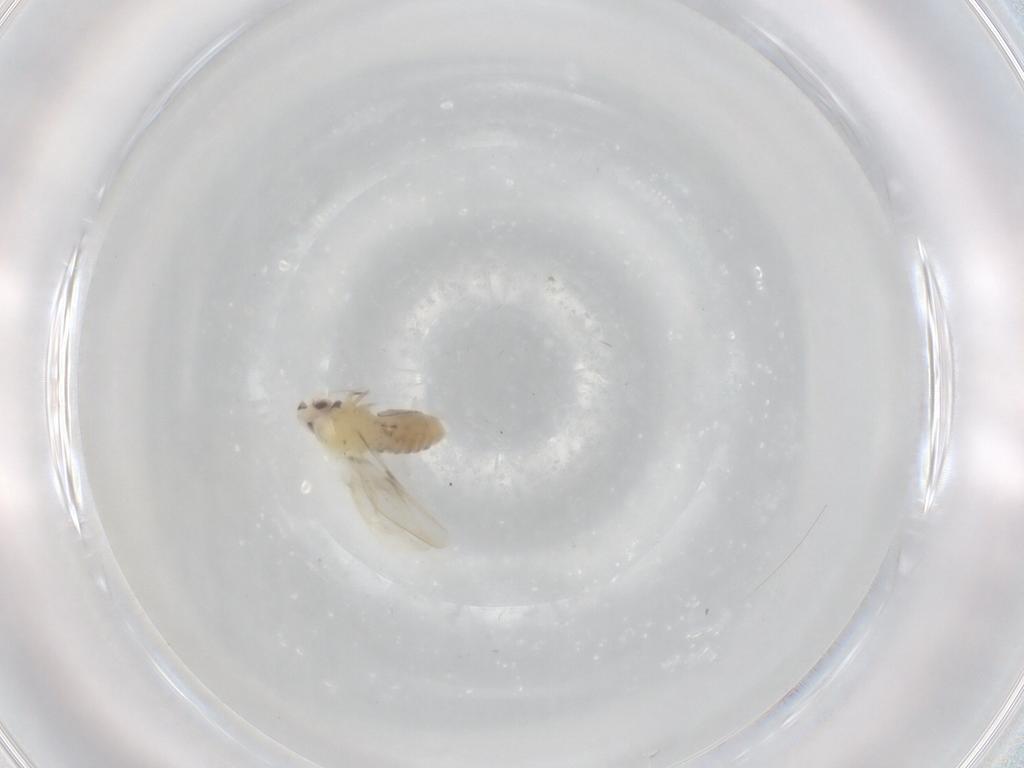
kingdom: Animalia
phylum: Arthropoda
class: Insecta
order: Hemiptera
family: Aleyrodidae
